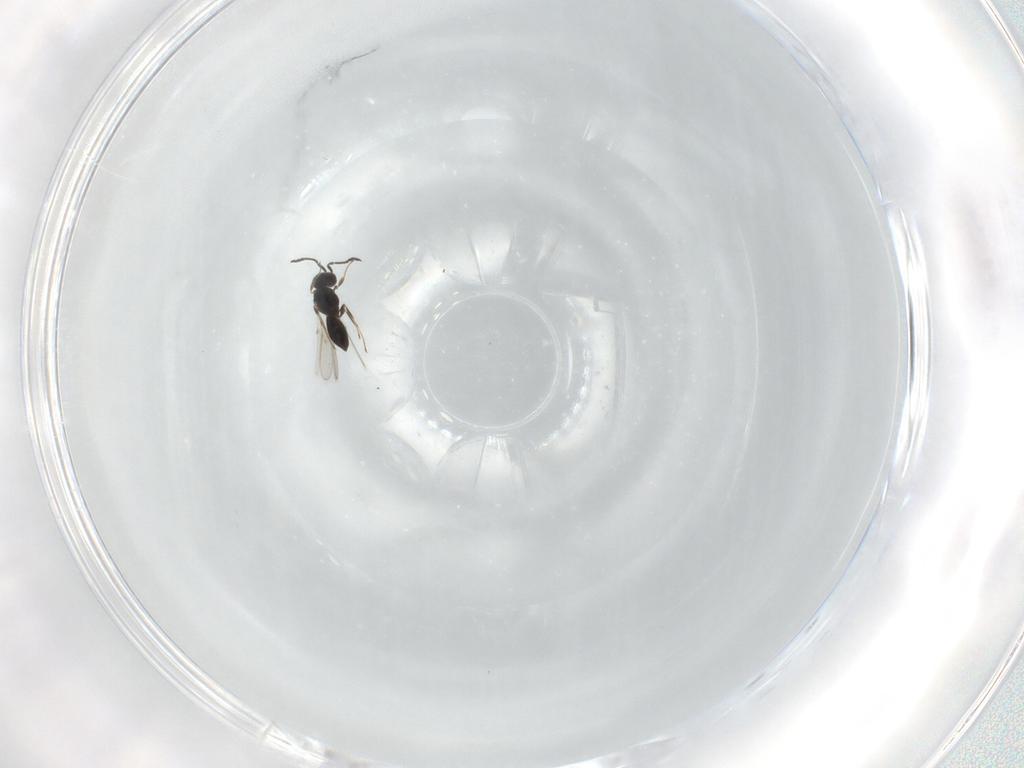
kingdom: Animalia
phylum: Arthropoda
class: Insecta
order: Hymenoptera
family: Scelionidae
